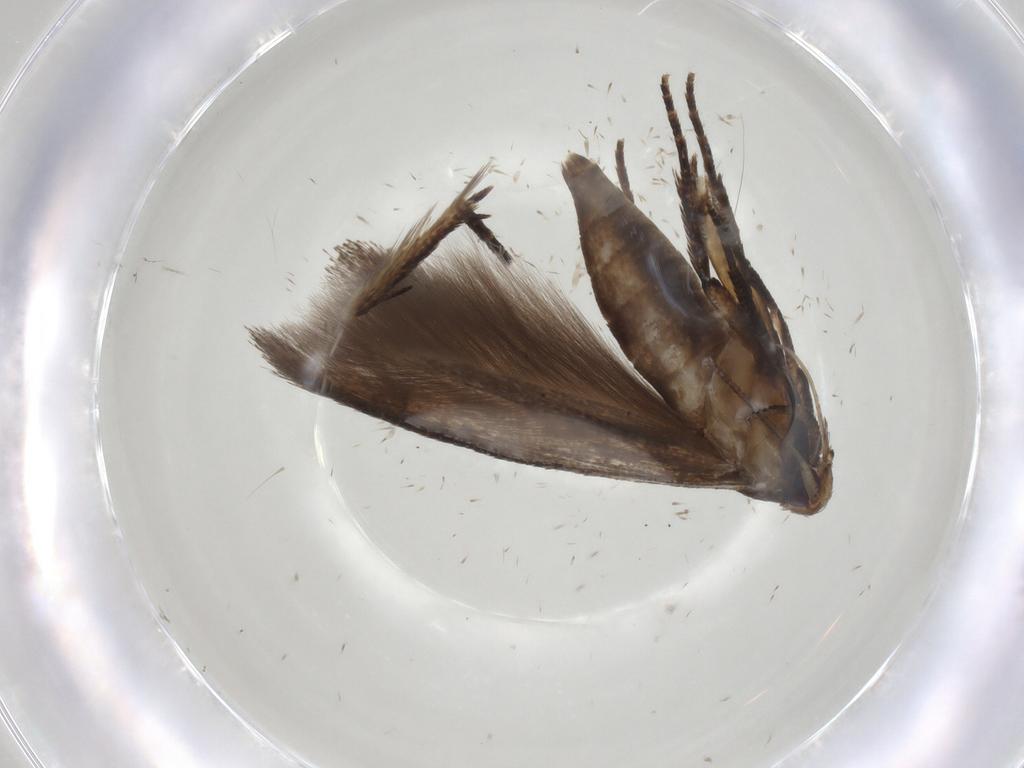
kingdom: Animalia
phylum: Arthropoda
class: Insecta
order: Lepidoptera
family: Cosmopterigidae
